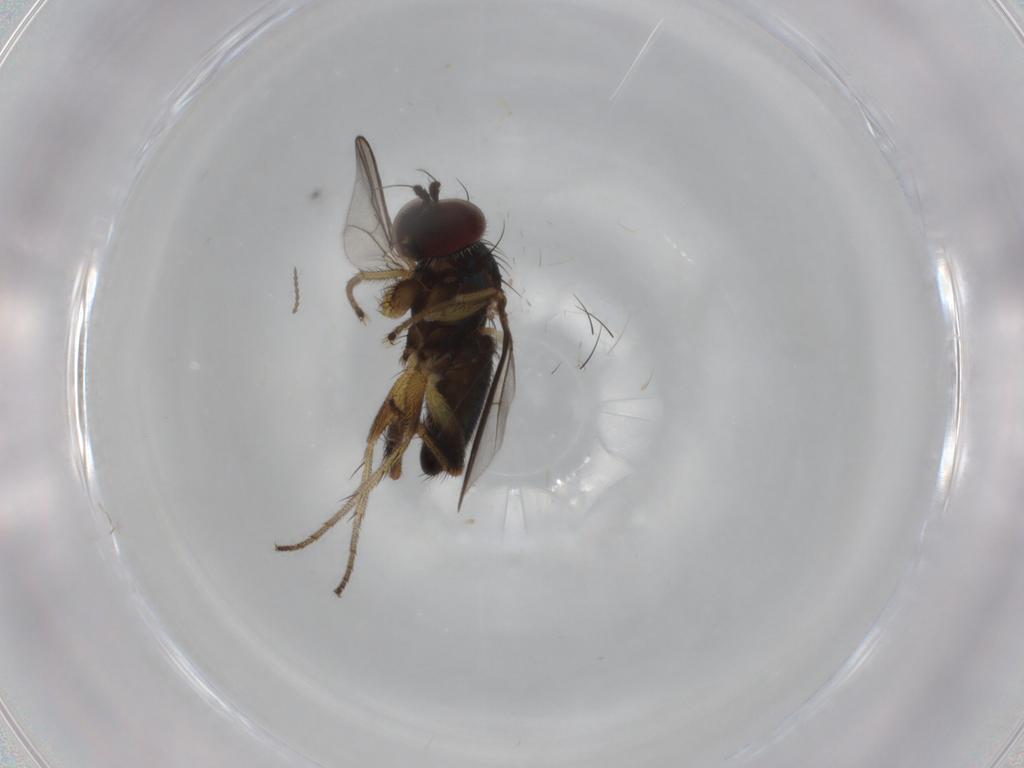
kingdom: Animalia
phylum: Arthropoda
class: Insecta
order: Diptera
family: Dolichopodidae
